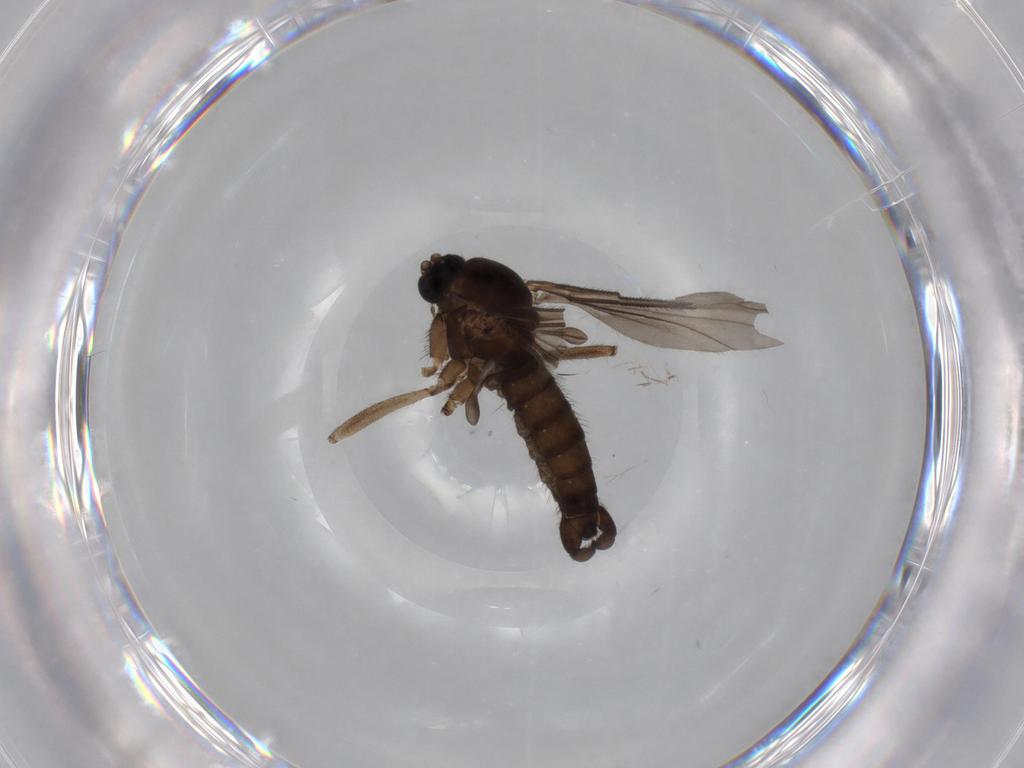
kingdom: Animalia
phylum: Arthropoda
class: Insecta
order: Diptera
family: Sciaridae
